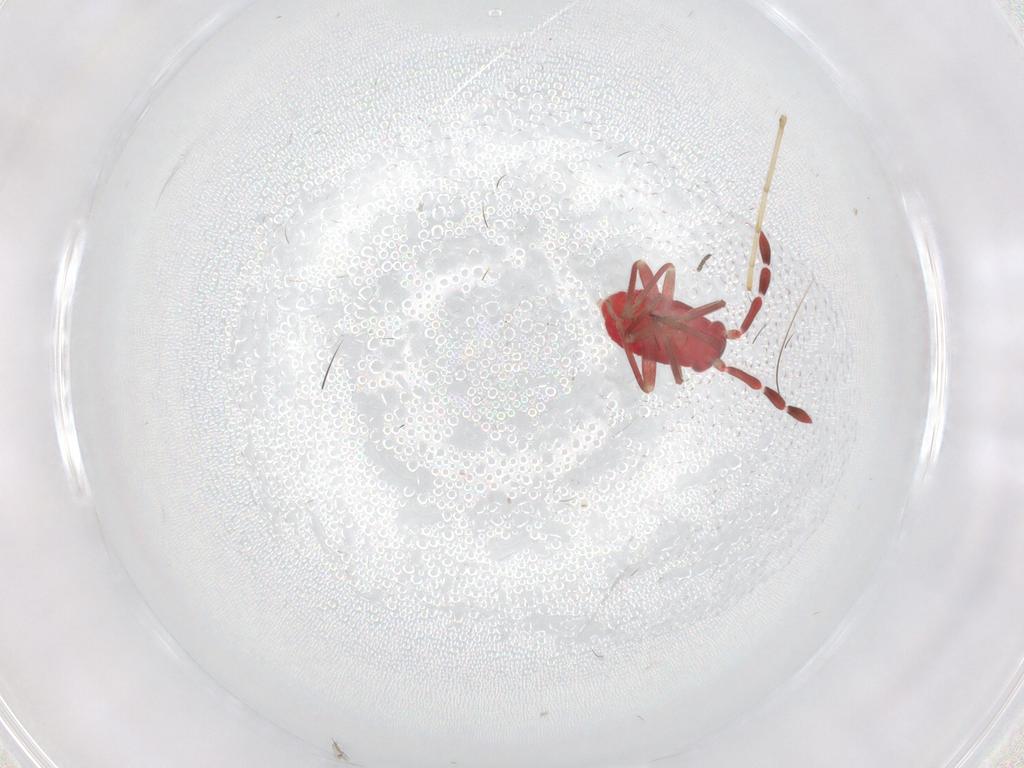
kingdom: Animalia
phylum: Arthropoda
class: Insecta
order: Hemiptera
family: Miridae
